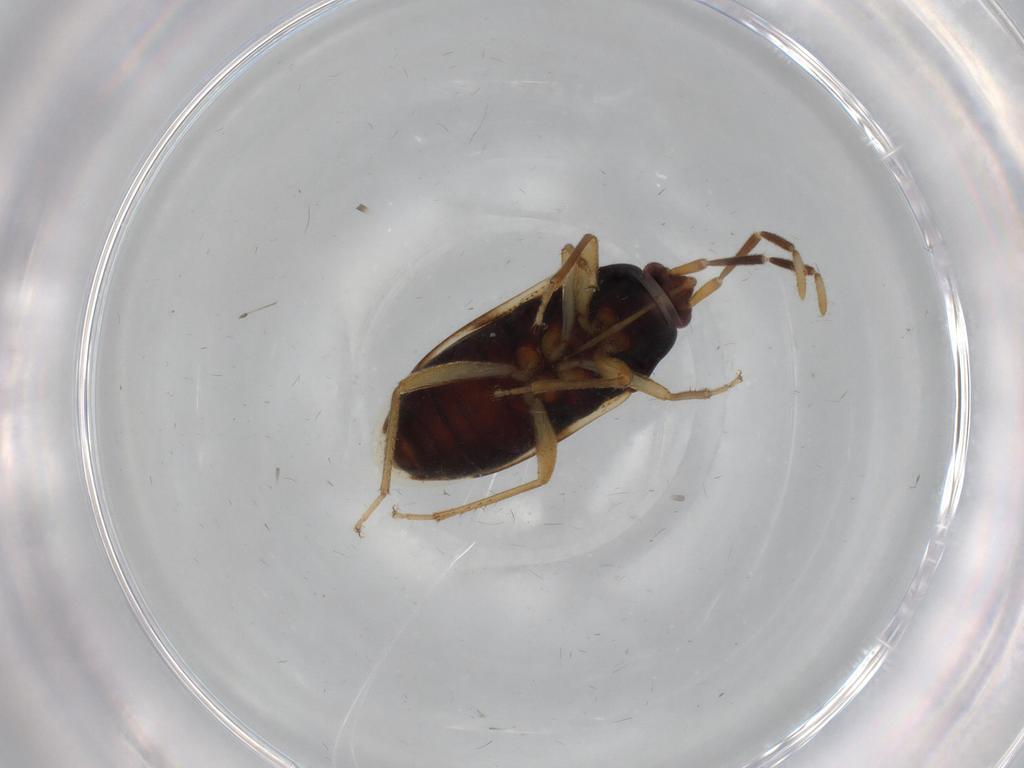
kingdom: Animalia
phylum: Arthropoda
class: Insecta
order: Hemiptera
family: Rhyparochromidae
